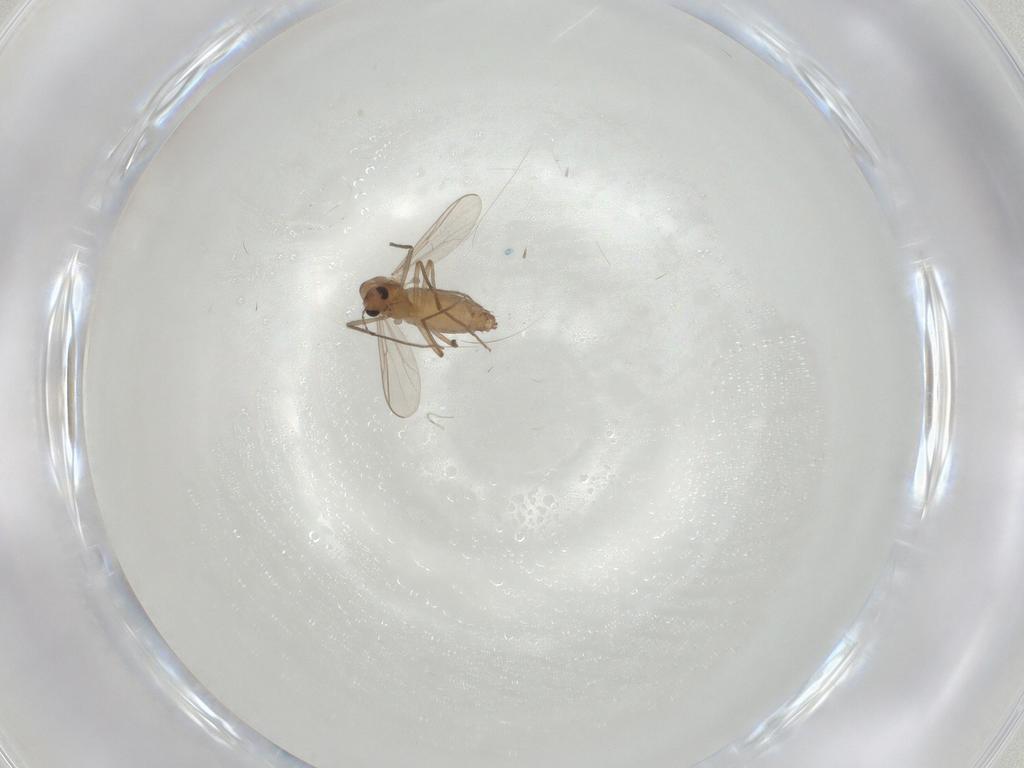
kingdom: Animalia
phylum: Arthropoda
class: Insecta
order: Diptera
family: Chironomidae
